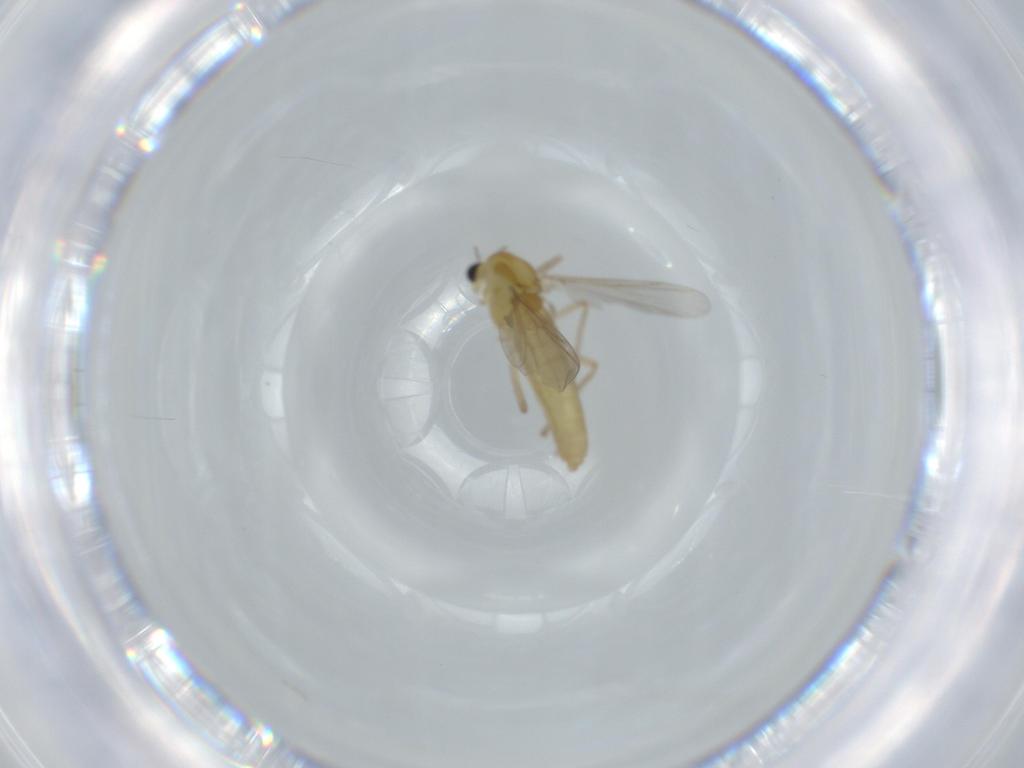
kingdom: Animalia
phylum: Arthropoda
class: Insecta
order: Diptera
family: Chironomidae
